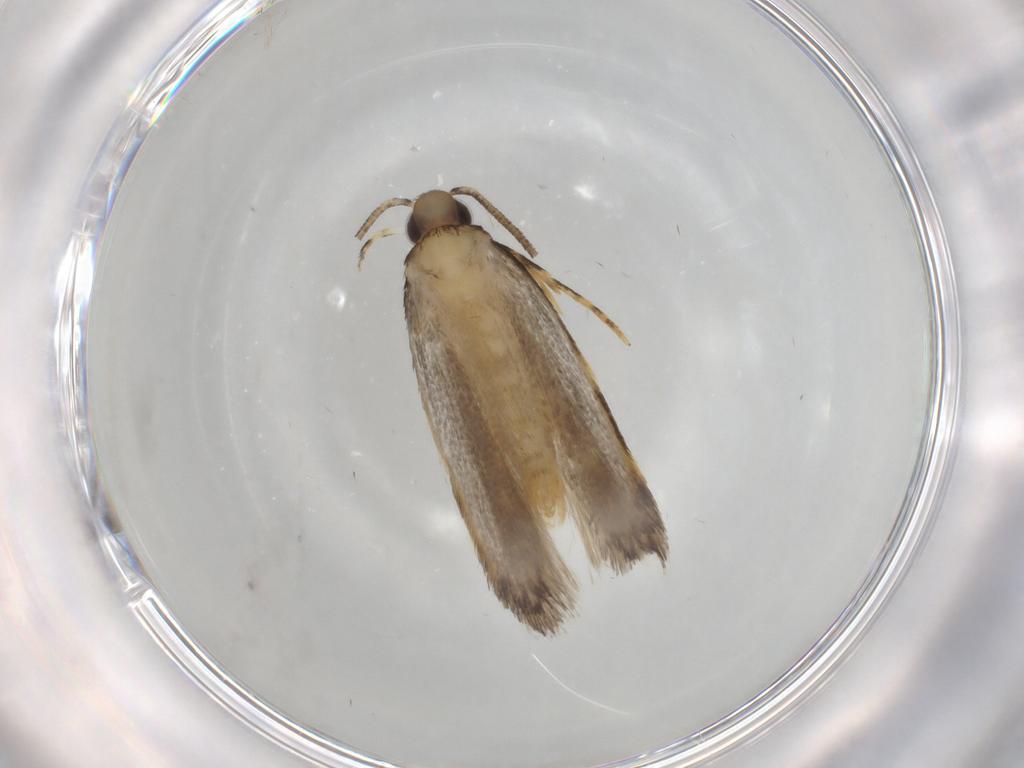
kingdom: Animalia
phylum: Arthropoda
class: Insecta
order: Lepidoptera
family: Autostichidae
